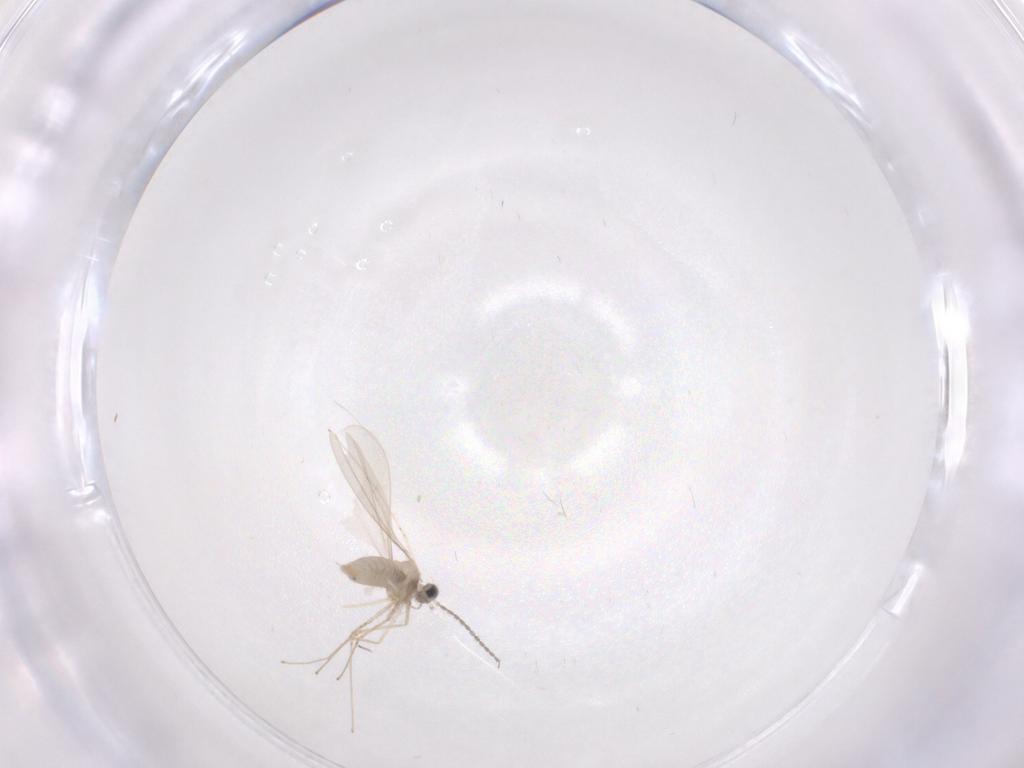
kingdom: Animalia
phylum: Arthropoda
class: Insecta
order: Diptera
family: Cecidomyiidae
